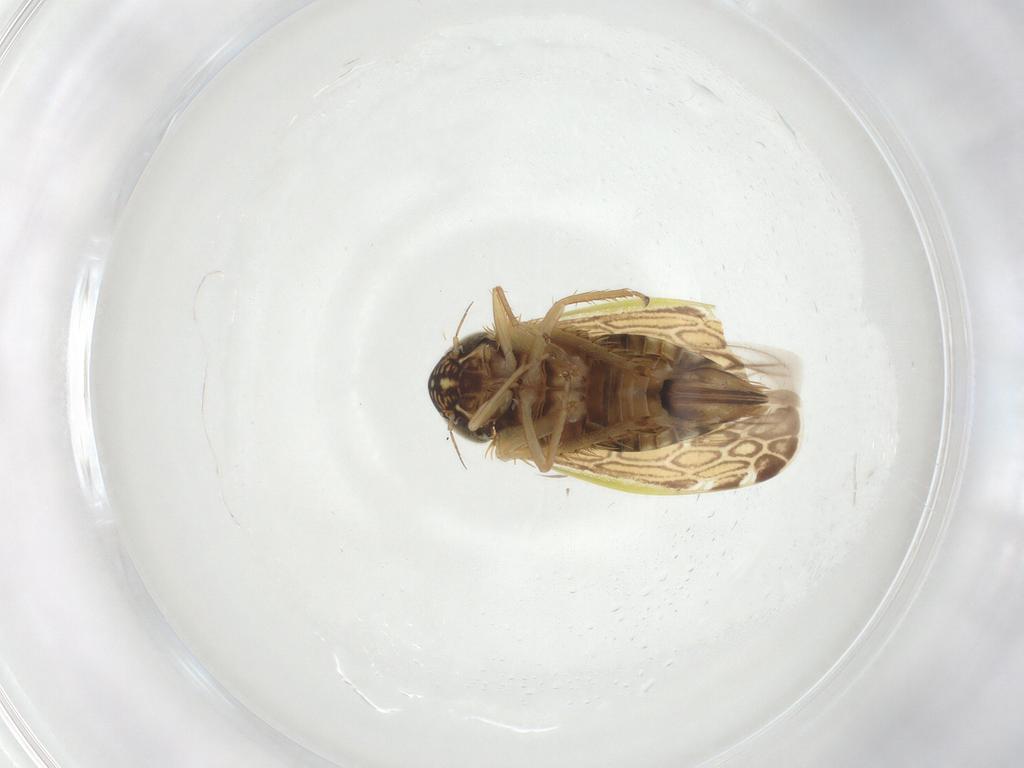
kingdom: Animalia
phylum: Arthropoda
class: Insecta
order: Hemiptera
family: Cicadellidae
